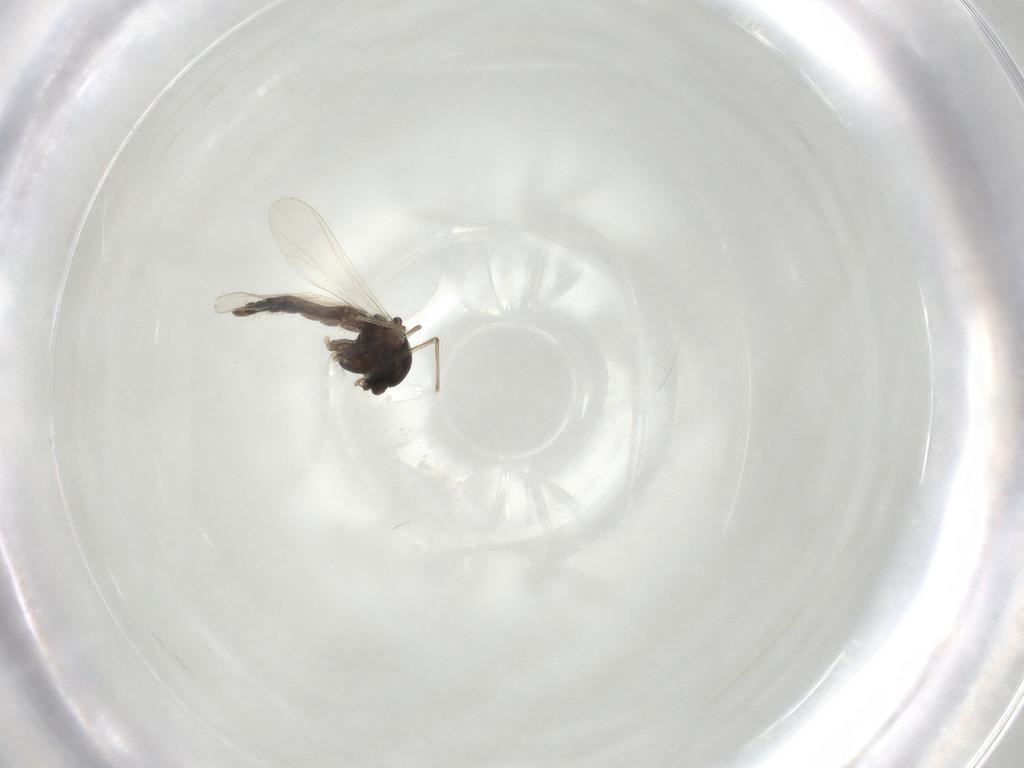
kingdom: Animalia
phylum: Arthropoda
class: Insecta
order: Diptera
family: Chironomidae
